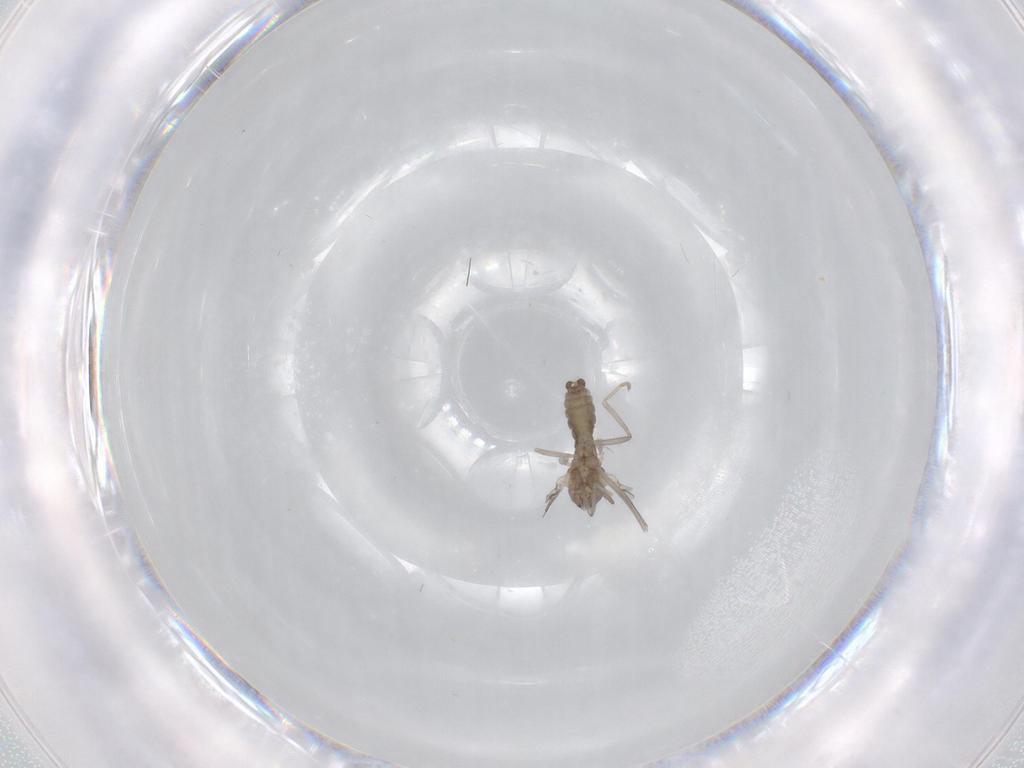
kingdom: Animalia
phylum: Arthropoda
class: Insecta
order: Diptera
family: Cecidomyiidae
